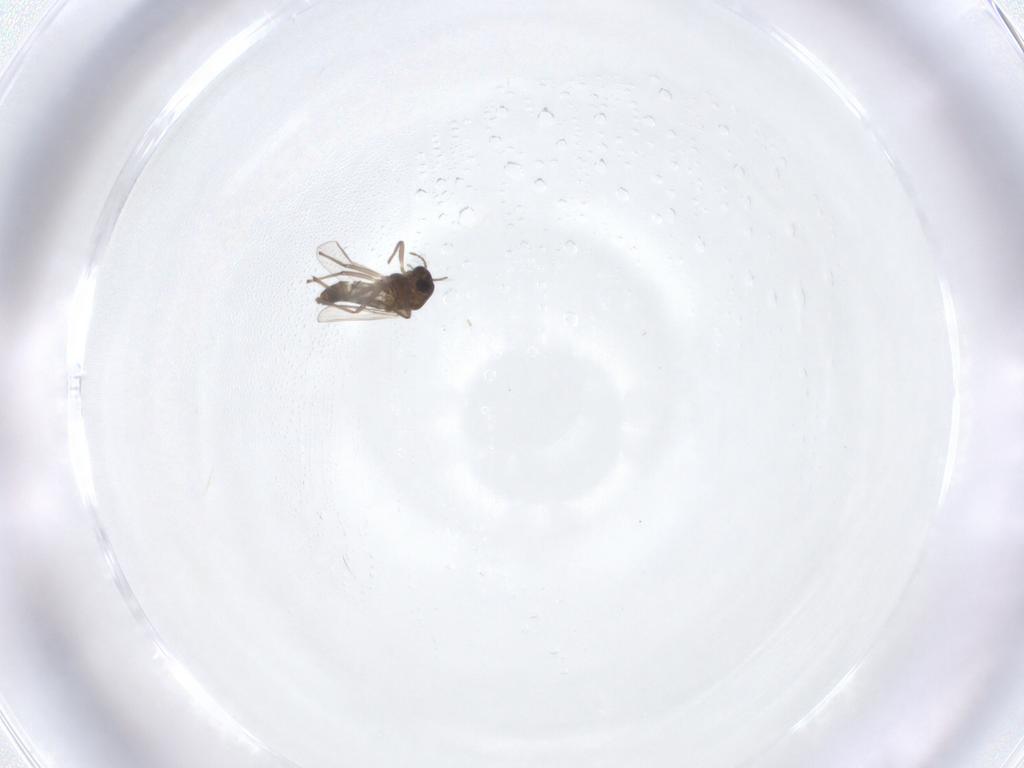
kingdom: Animalia
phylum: Arthropoda
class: Insecta
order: Diptera
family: Chironomidae
